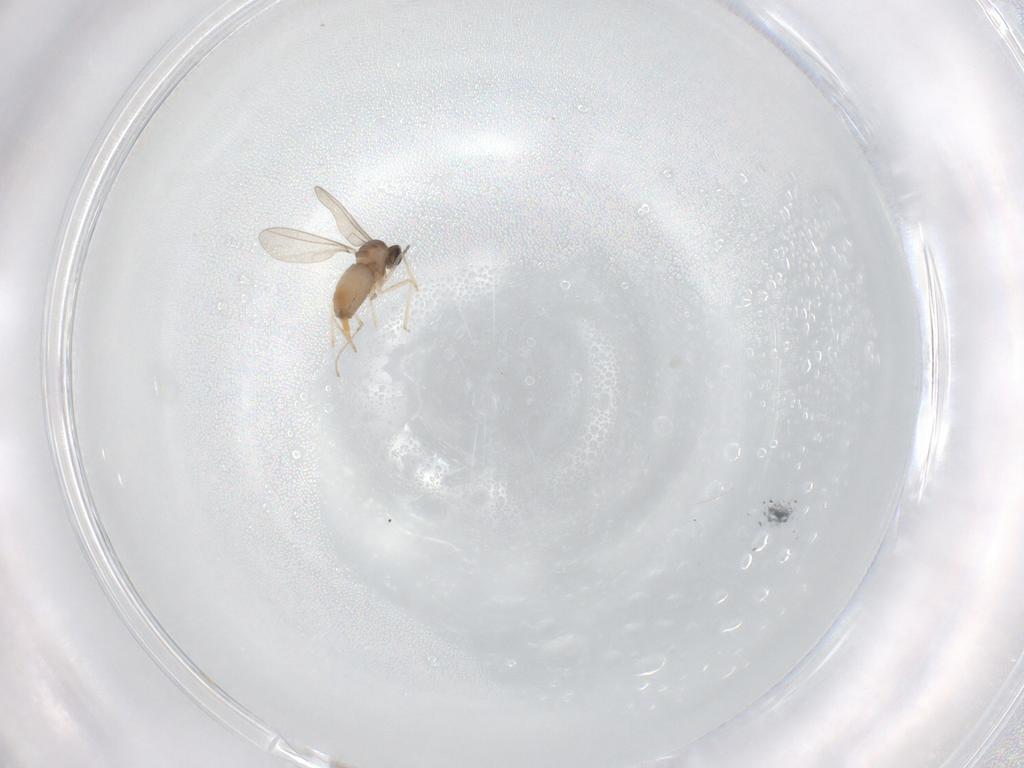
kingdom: Animalia
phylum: Arthropoda
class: Insecta
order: Diptera
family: Cecidomyiidae
